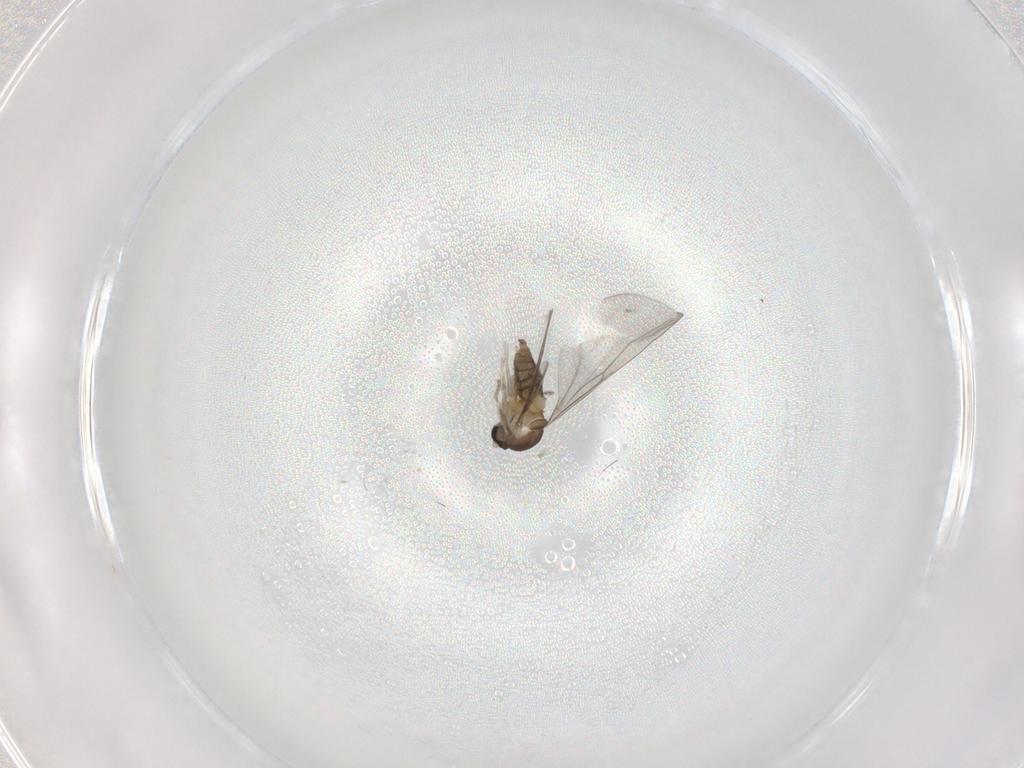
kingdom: Animalia
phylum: Arthropoda
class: Insecta
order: Diptera
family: Cecidomyiidae
